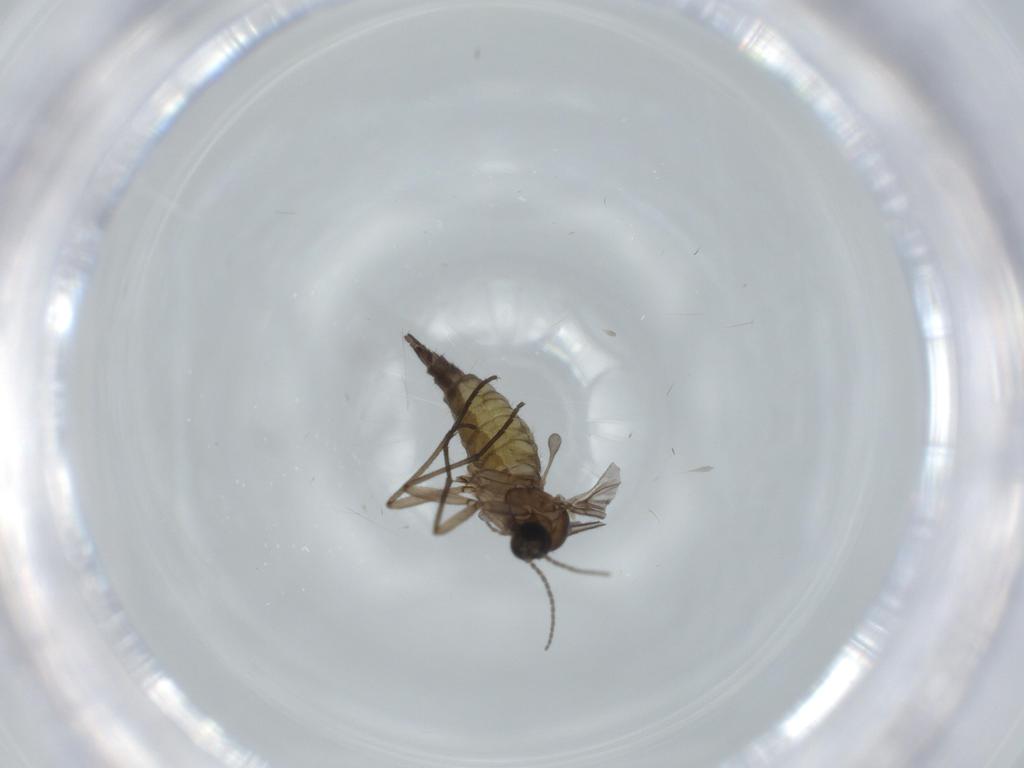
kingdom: Animalia
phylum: Arthropoda
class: Insecta
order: Diptera
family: Sciaridae
